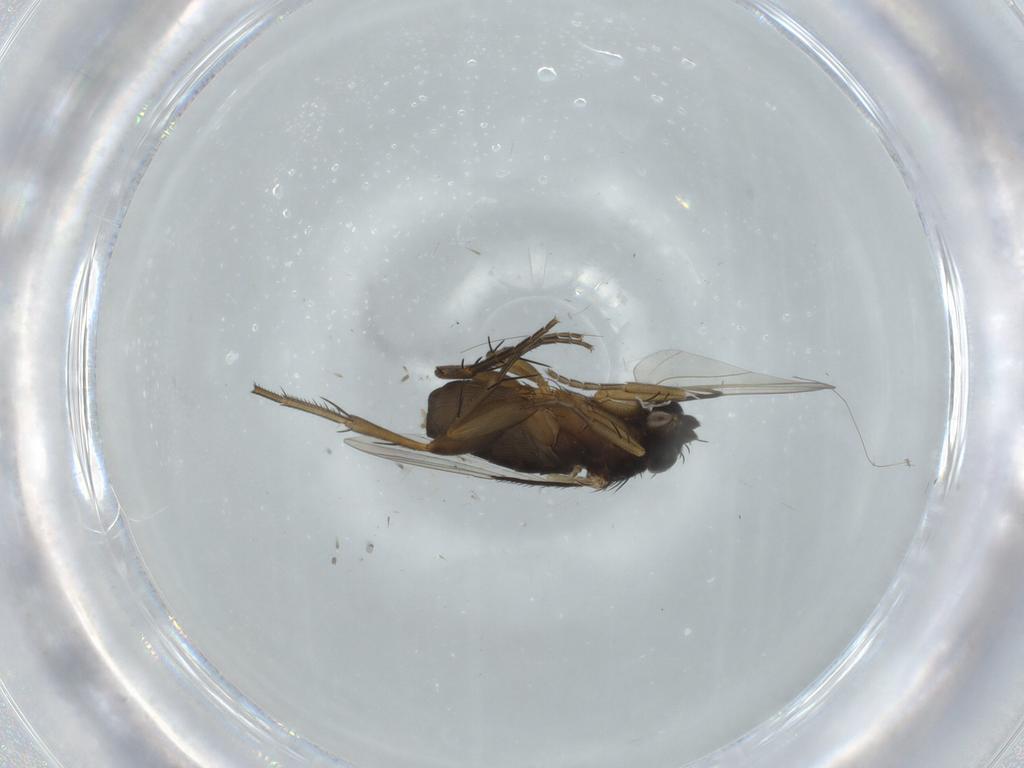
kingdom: Animalia
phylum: Arthropoda
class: Insecta
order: Diptera
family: Phoridae
